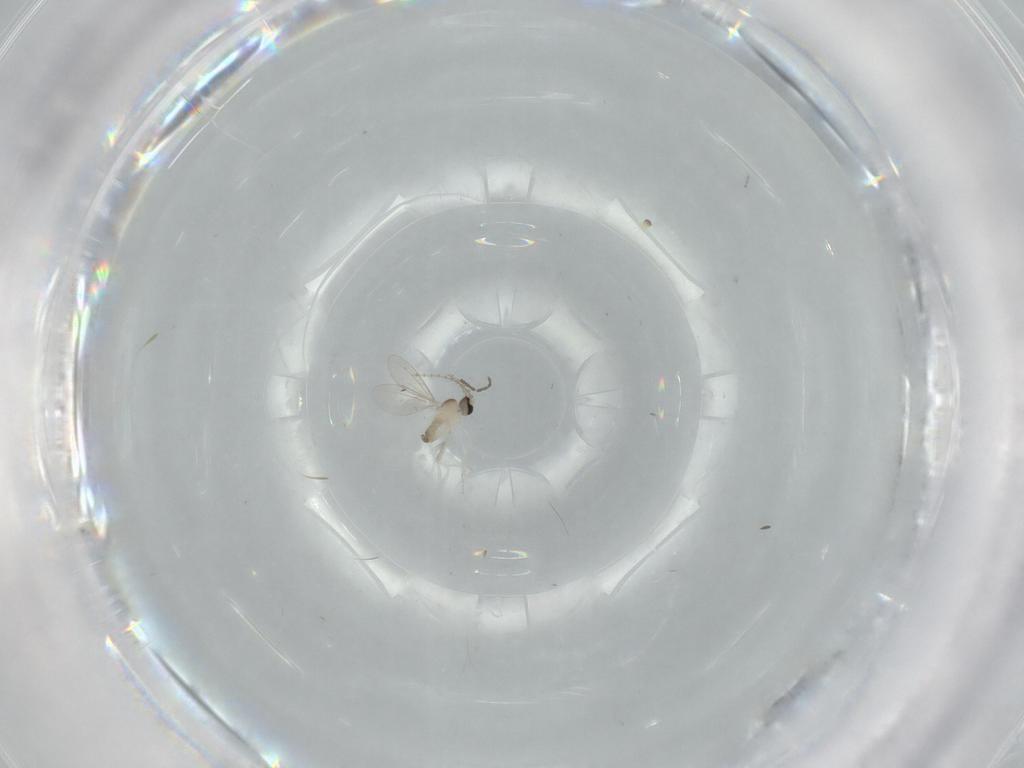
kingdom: Animalia
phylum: Arthropoda
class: Insecta
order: Diptera
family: Cecidomyiidae
